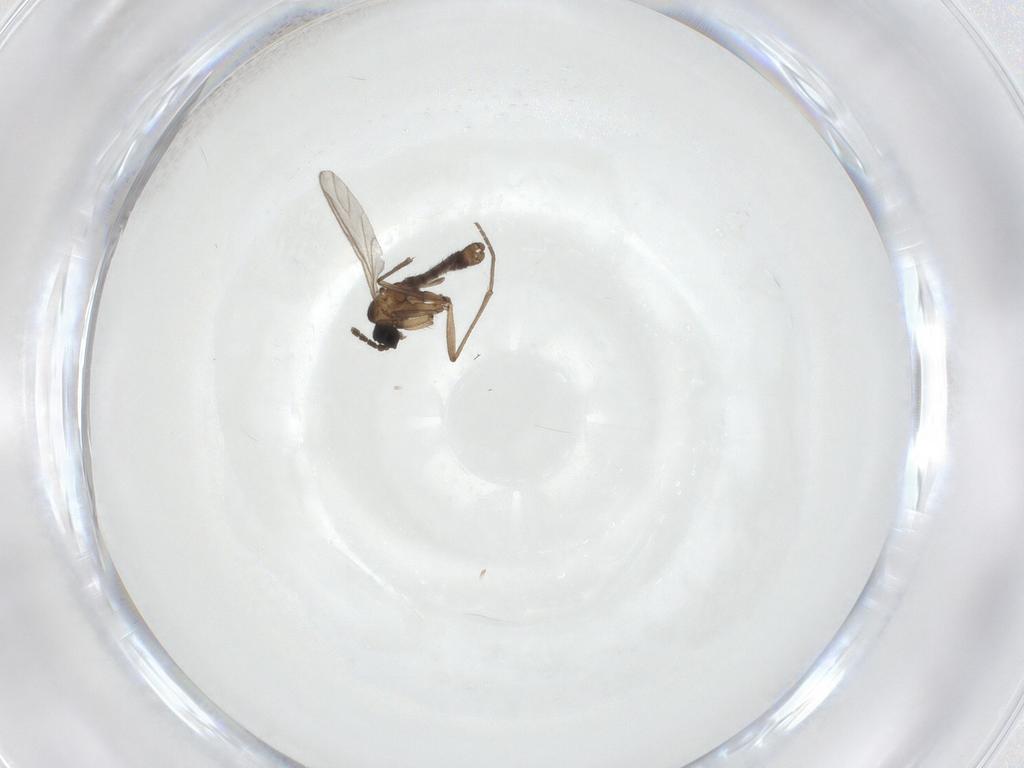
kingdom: Animalia
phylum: Arthropoda
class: Insecta
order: Diptera
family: Sciaridae
